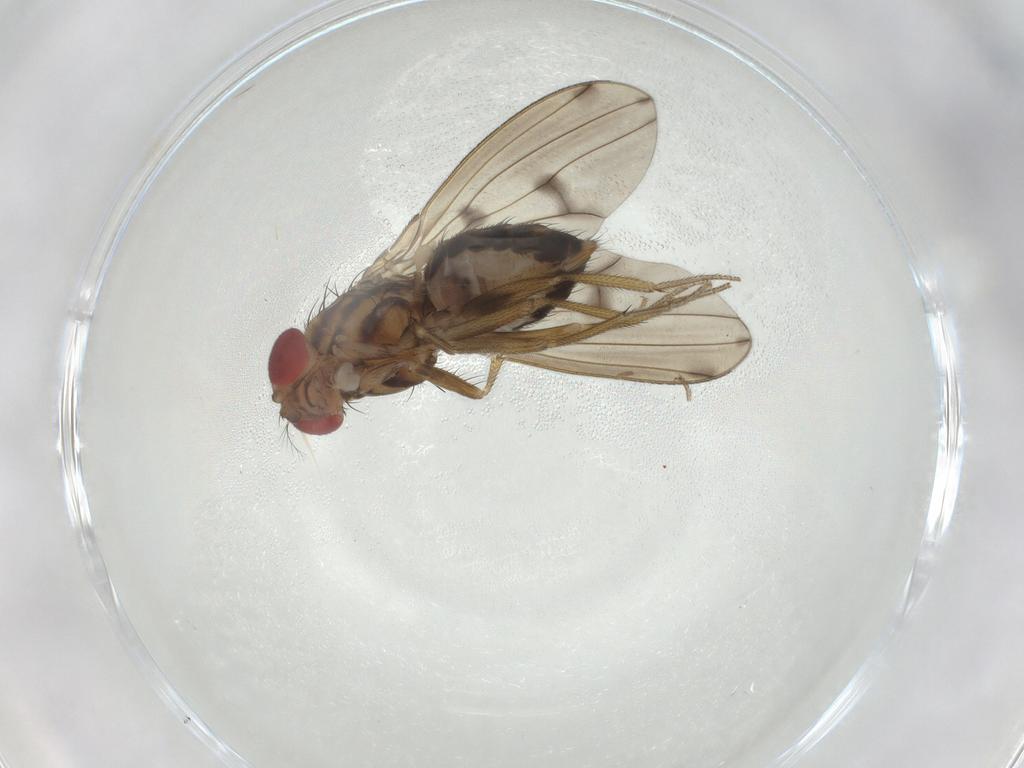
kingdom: Animalia
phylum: Arthropoda
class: Insecta
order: Diptera
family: Drosophilidae
